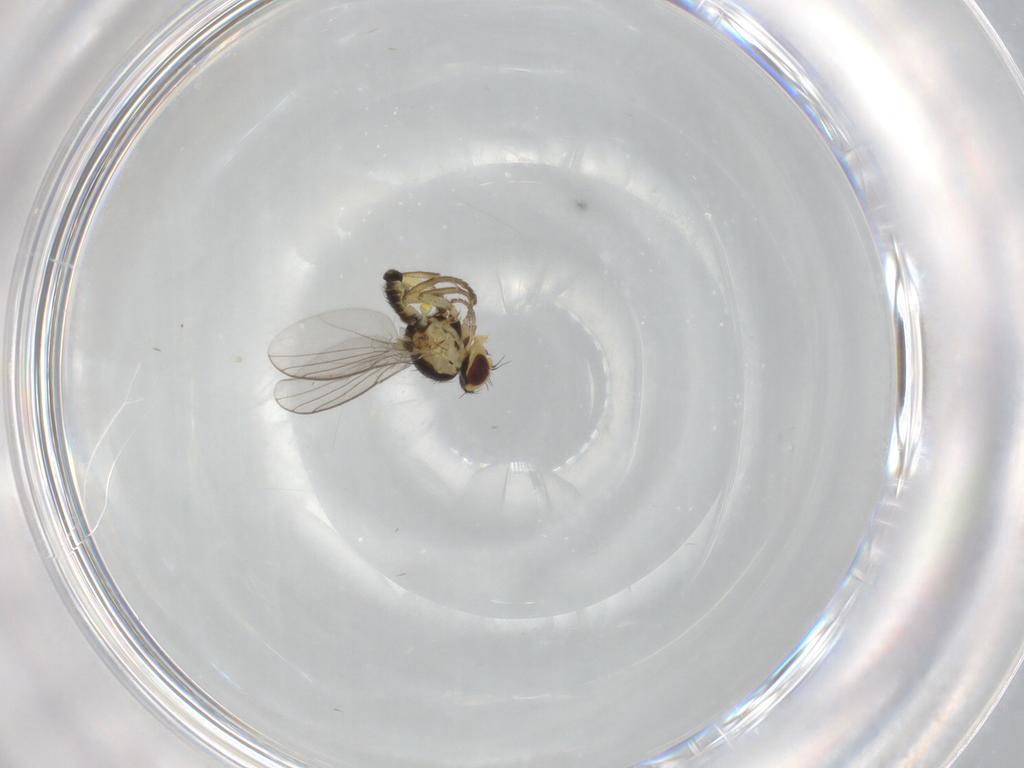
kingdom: Animalia
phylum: Arthropoda
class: Insecta
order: Diptera
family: Agromyzidae
